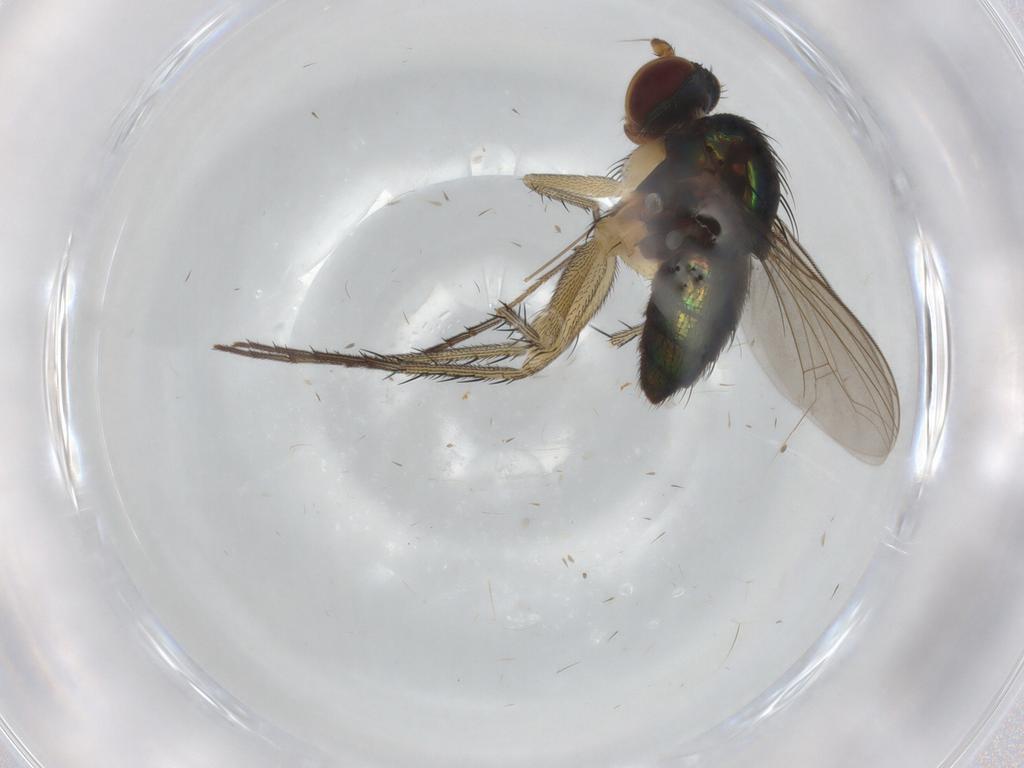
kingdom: Animalia
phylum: Arthropoda
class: Insecta
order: Diptera
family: Dolichopodidae
